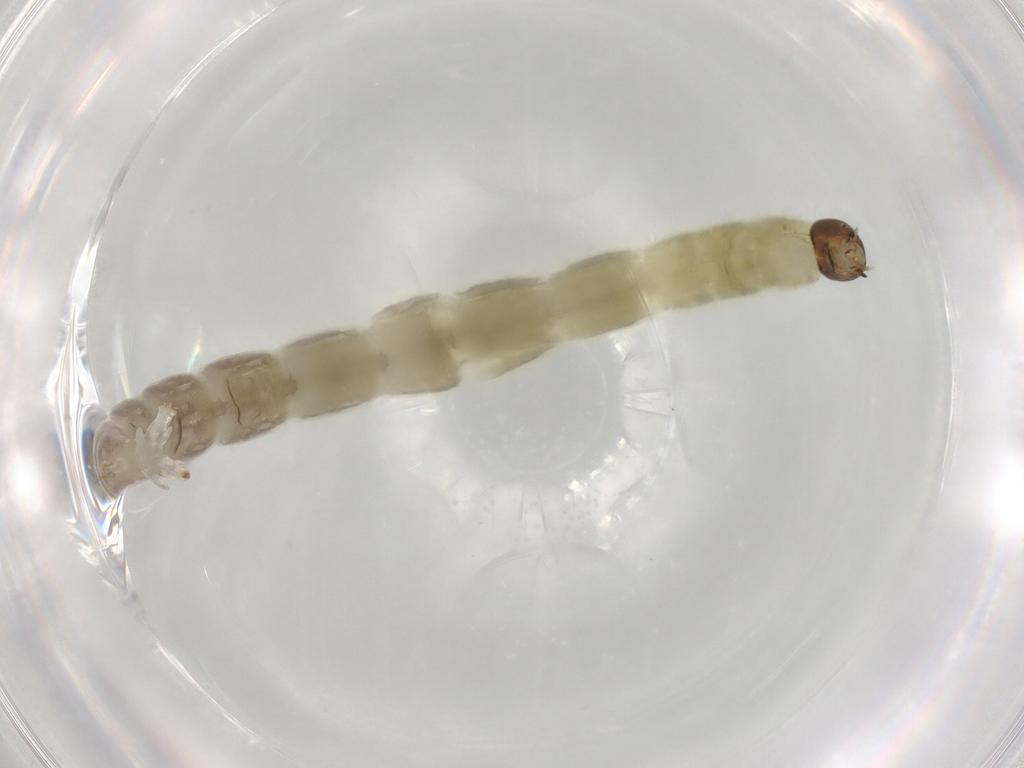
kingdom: Animalia
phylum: Arthropoda
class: Insecta
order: Diptera
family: Chironomidae
